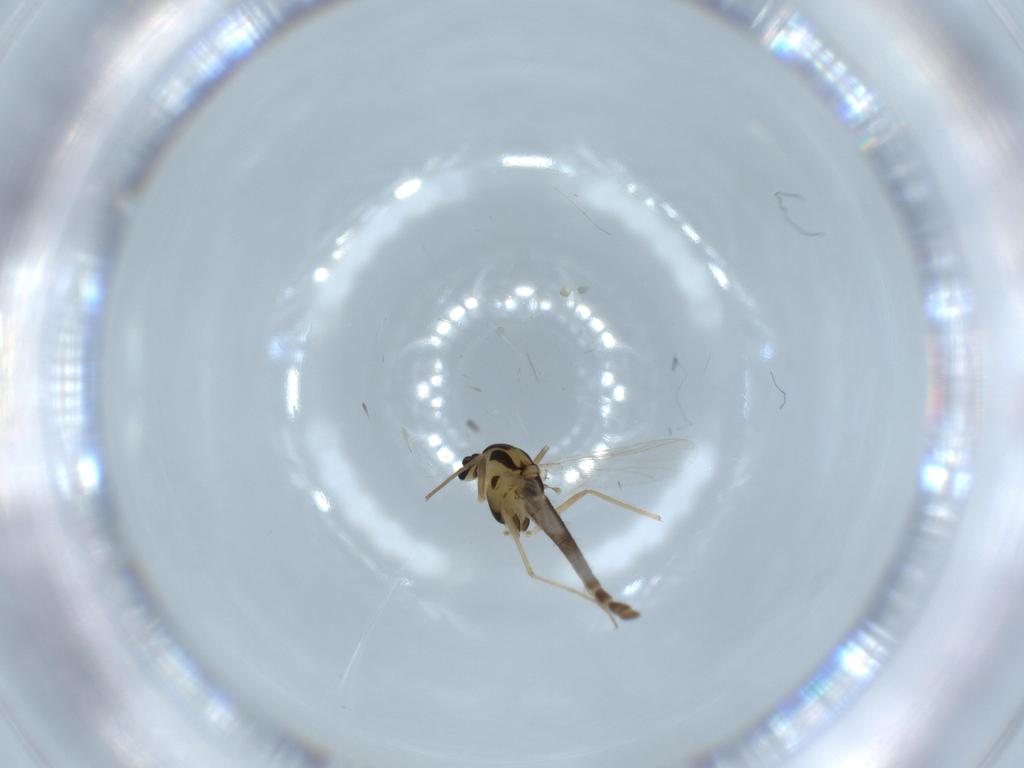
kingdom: Animalia
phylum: Arthropoda
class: Insecta
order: Diptera
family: Chironomidae
